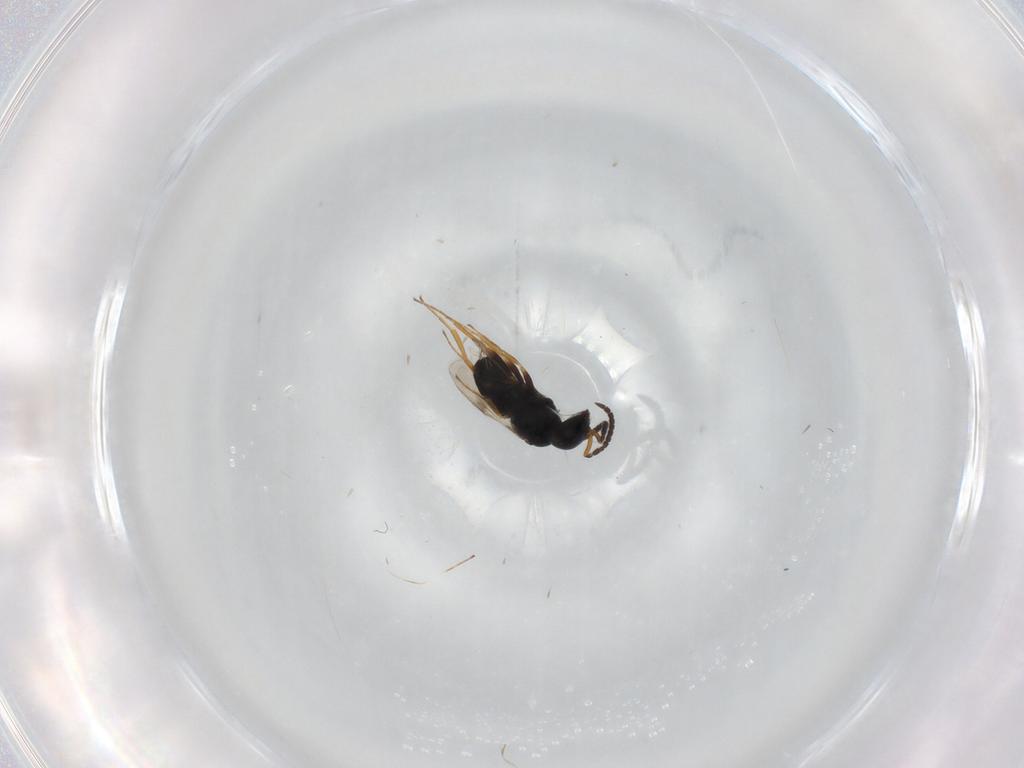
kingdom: Animalia
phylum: Arthropoda
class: Insecta
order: Hymenoptera
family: Scelionidae
